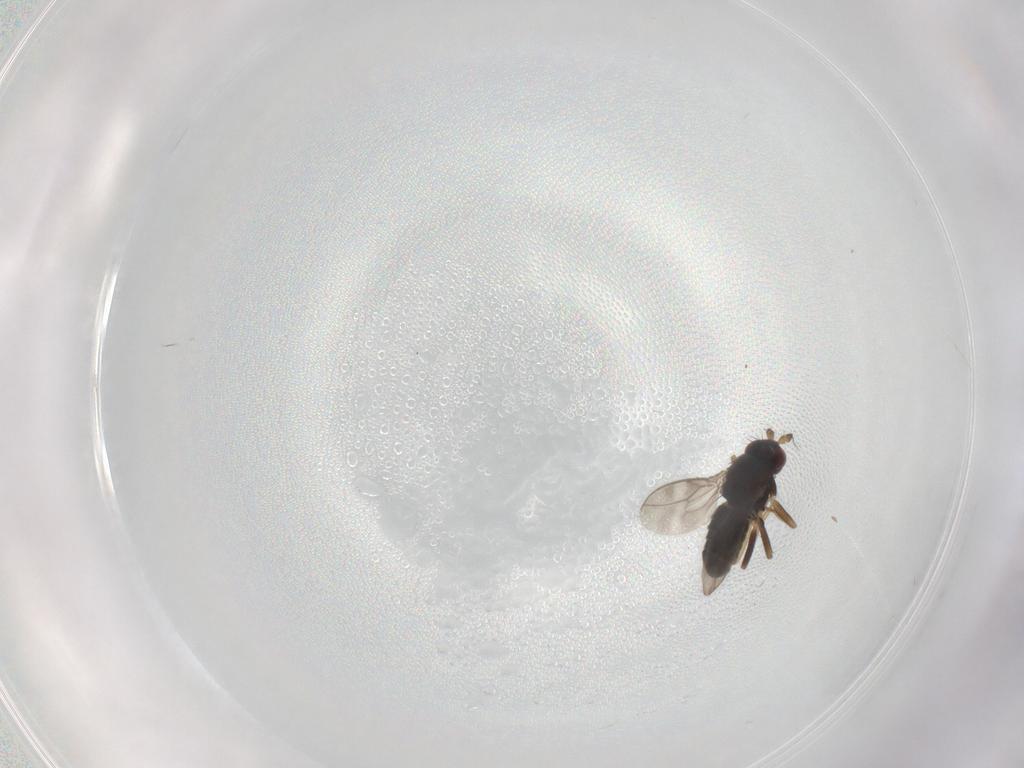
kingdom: Animalia
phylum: Arthropoda
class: Insecta
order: Diptera
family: Sphaeroceridae
